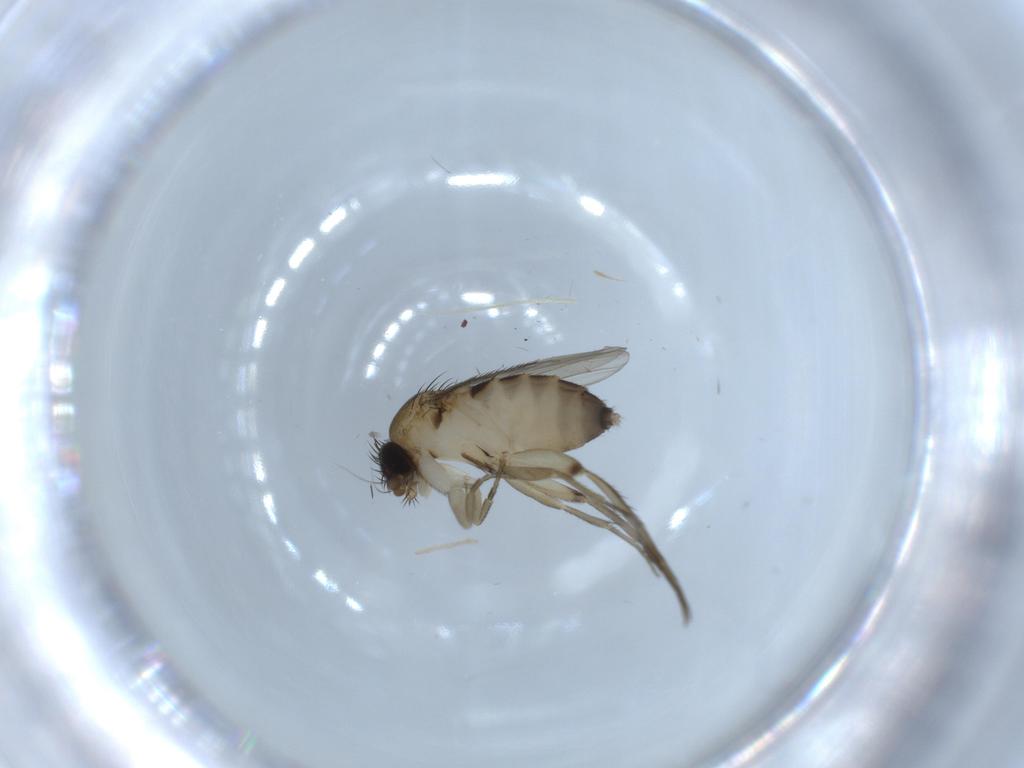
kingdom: Animalia
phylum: Arthropoda
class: Insecta
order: Diptera
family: Phoridae
